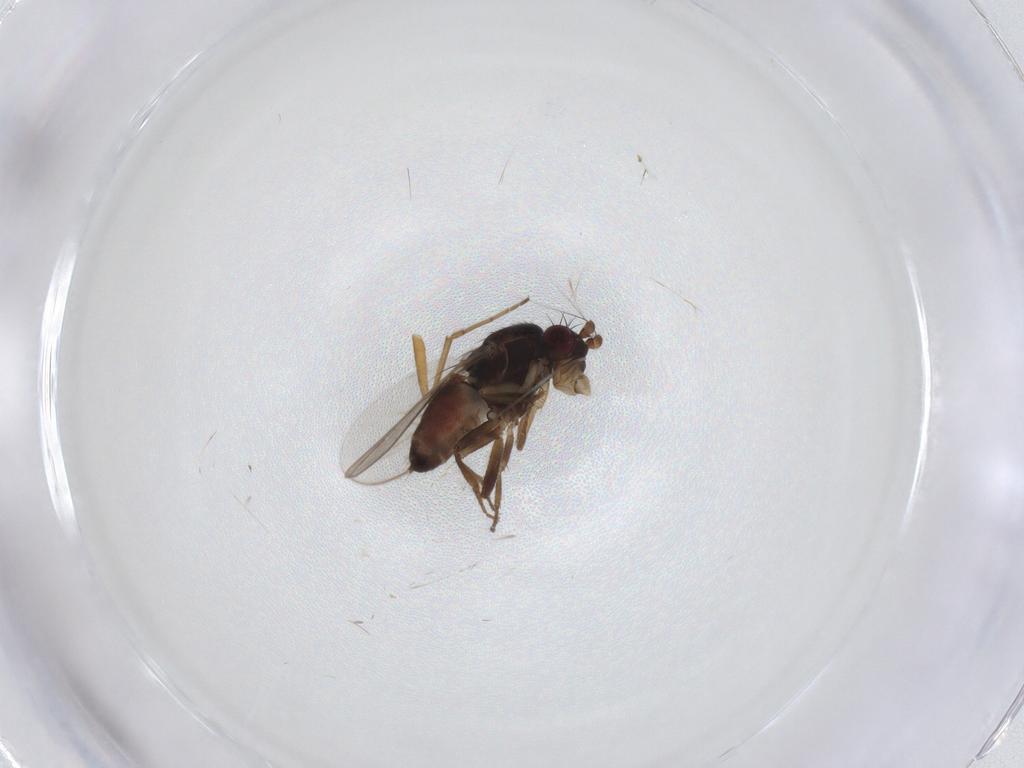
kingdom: Animalia
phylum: Arthropoda
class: Insecta
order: Diptera
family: Sphaeroceridae
